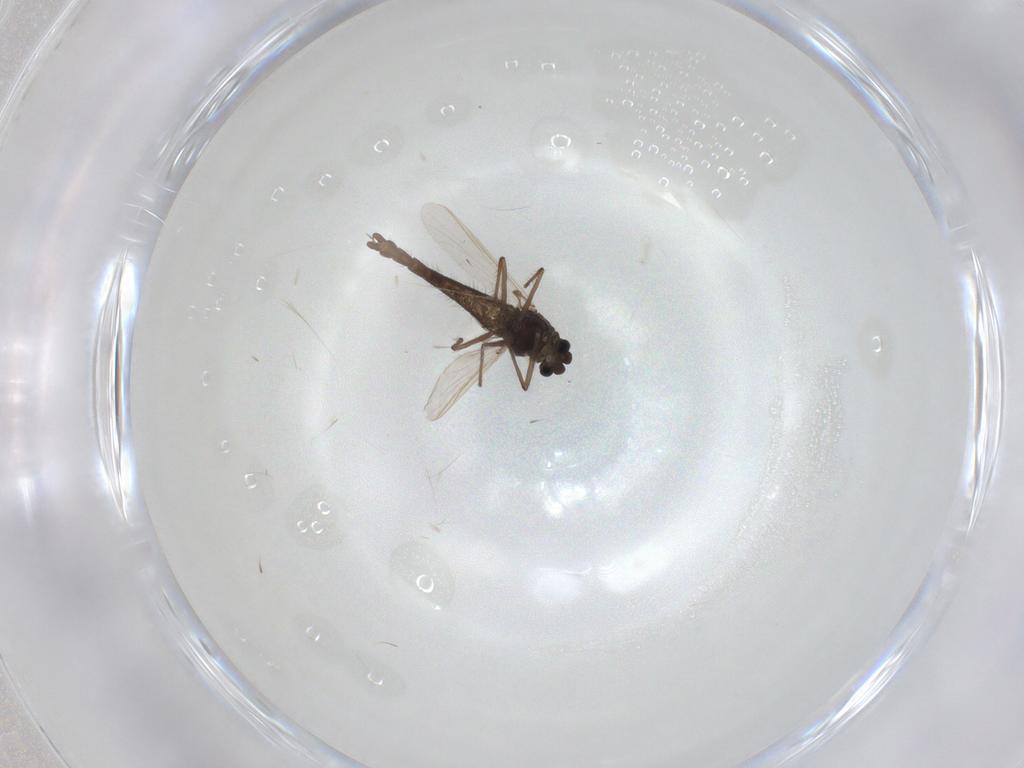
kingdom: Animalia
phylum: Arthropoda
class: Insecta
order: Diptera
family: Chironomidae
